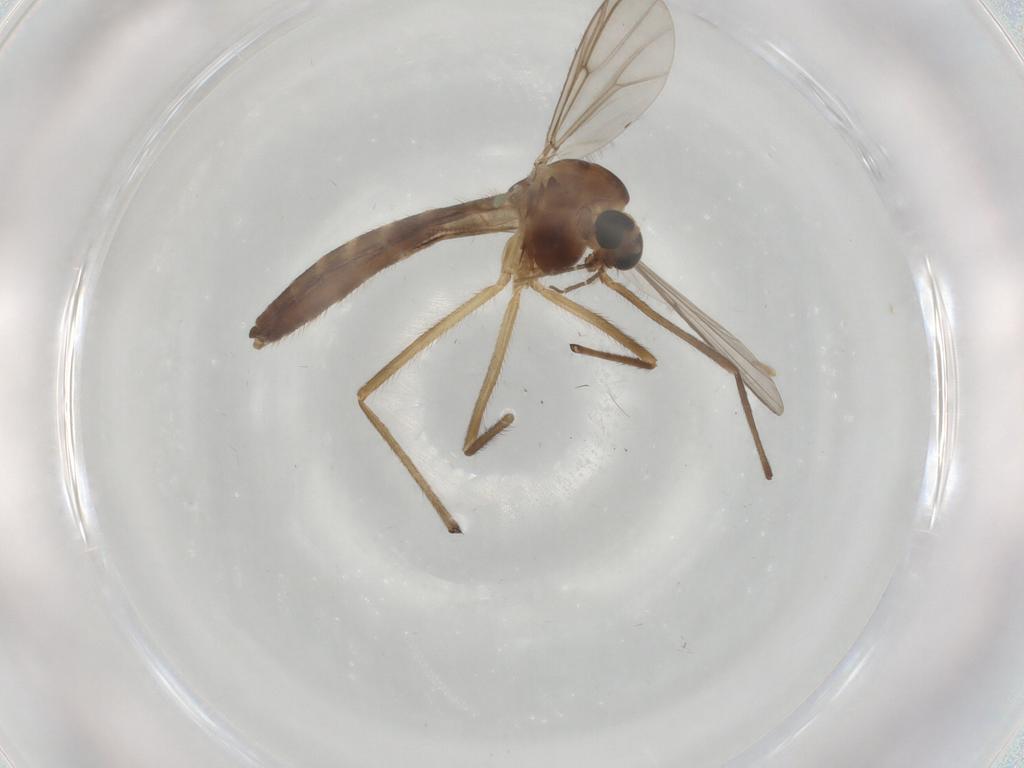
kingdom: Animalia
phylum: Arthropoda
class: Insecta
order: Diptera
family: Chironomidae
